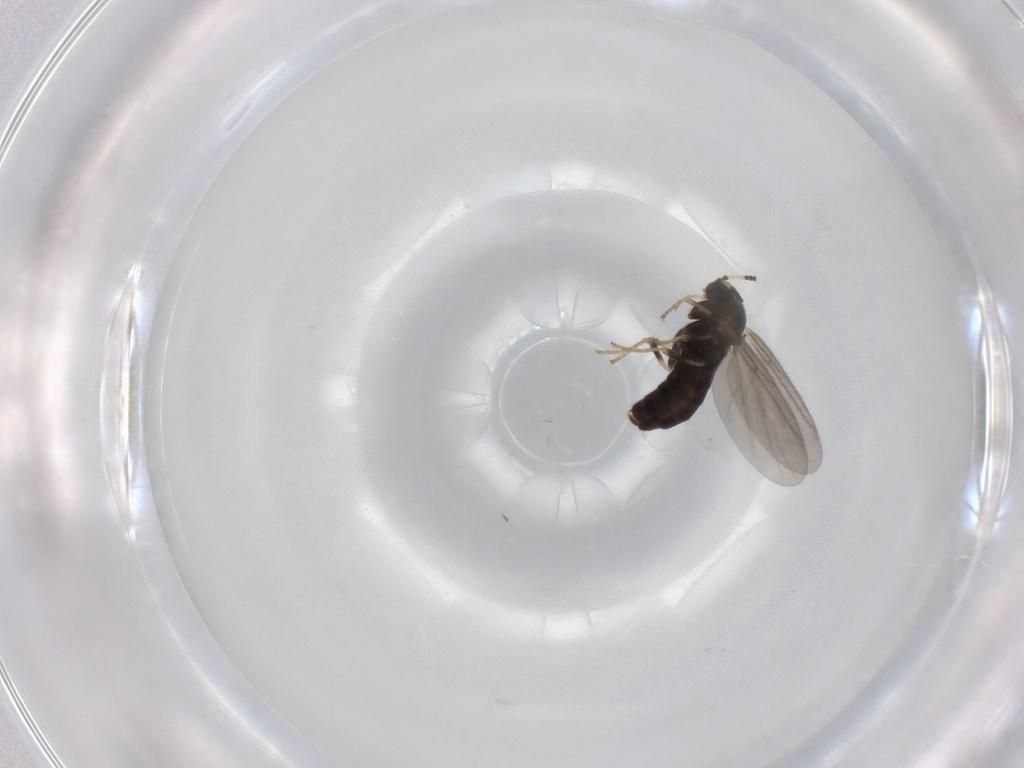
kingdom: Animalia
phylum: Arthropoda
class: Insecta
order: Diptera
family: Scatopsidae
